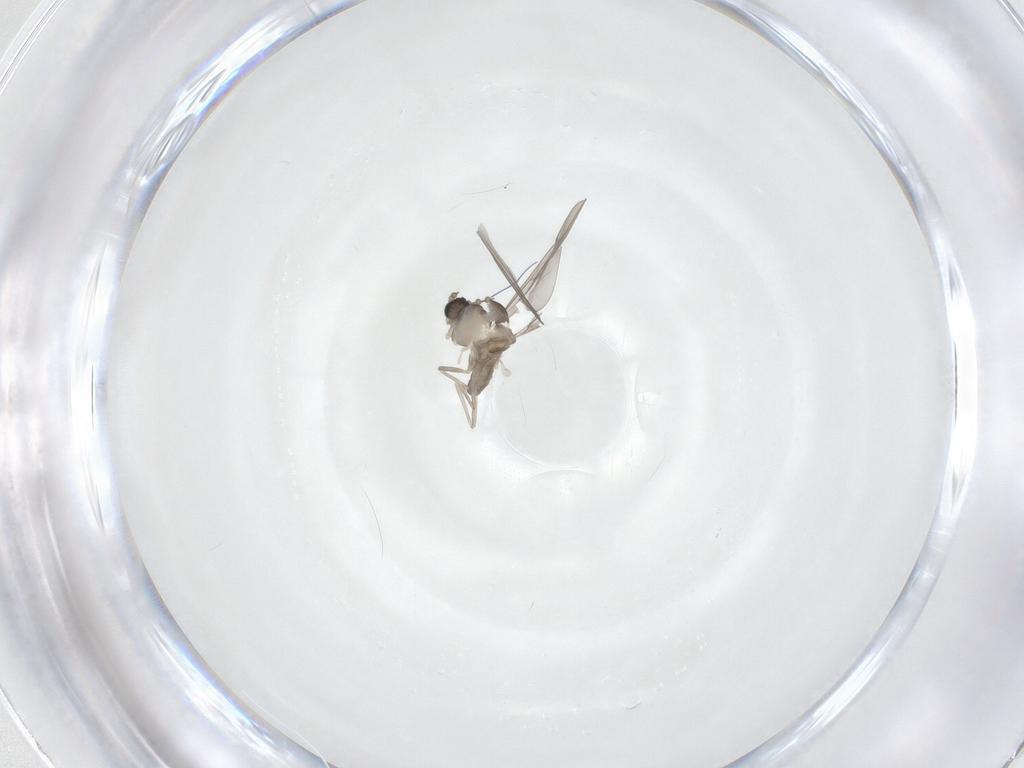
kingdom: Animalia
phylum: Arthropoda
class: Insecta
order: Diptera
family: Cecidomyiidae
